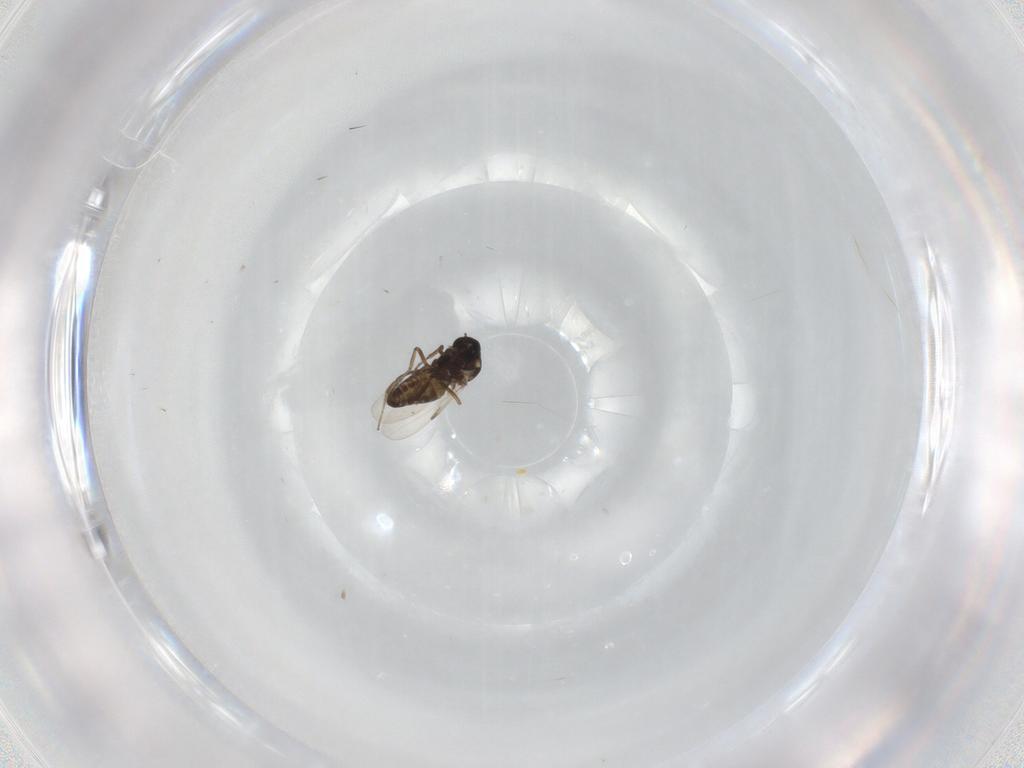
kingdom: Animalia
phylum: Arthropoda
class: Insecta
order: Diptera
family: Ceratopogonidae
